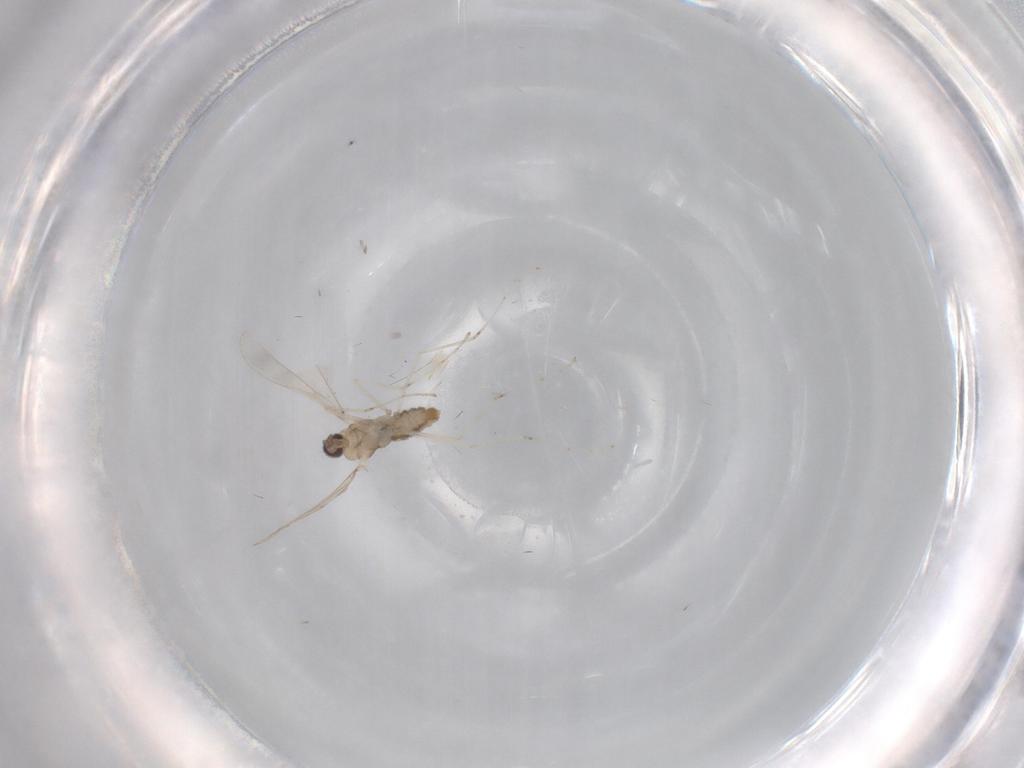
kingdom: Animalia
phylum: Arthropoda
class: Insecta
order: Diptera
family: Cecidomyiidae
